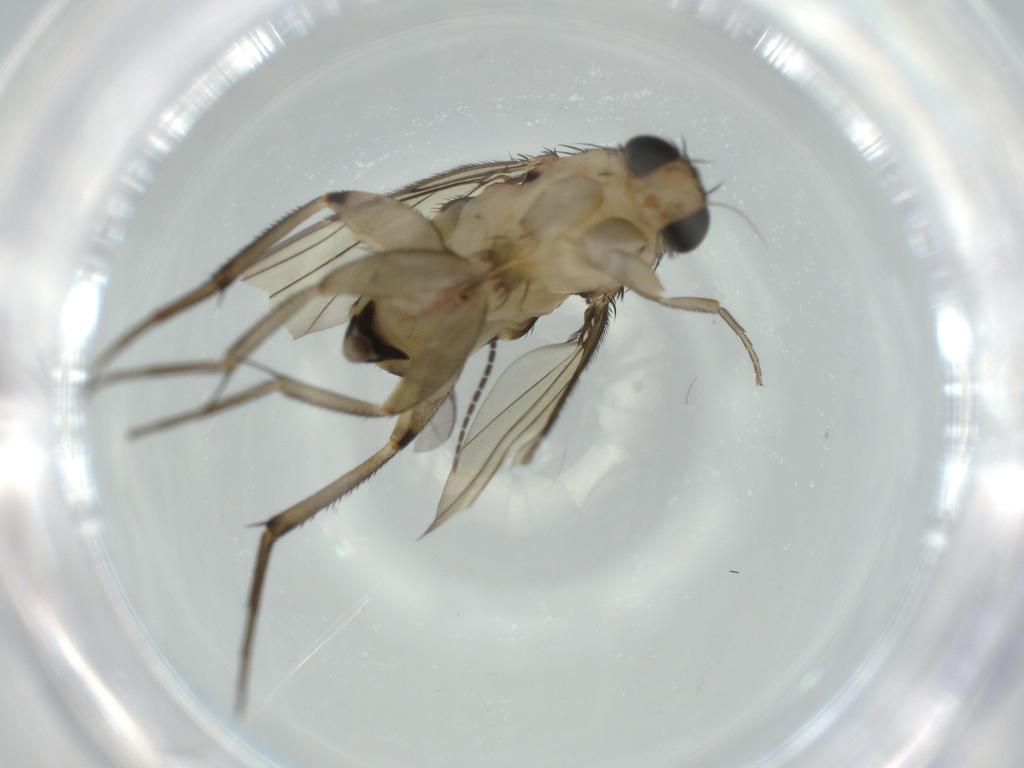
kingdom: Animalia
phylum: Arthropoda
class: Insecta
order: Diptera
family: Phoridae
